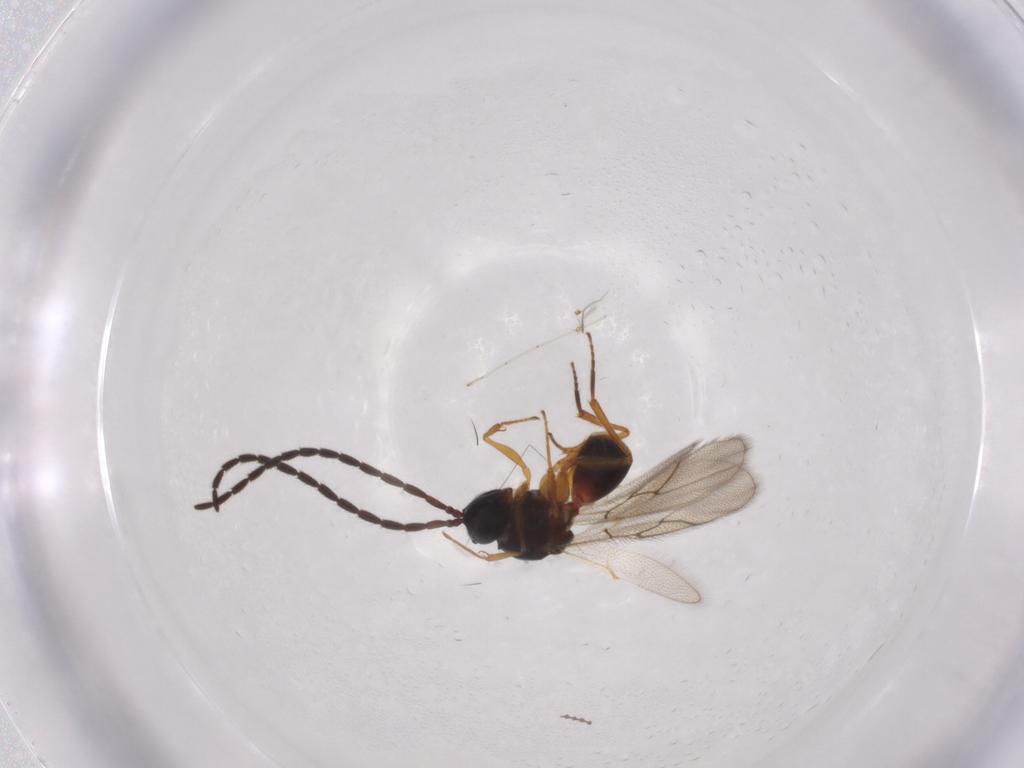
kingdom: Animalia
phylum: Arthropoda
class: Insecta
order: Hymenoptera
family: Figitidae
